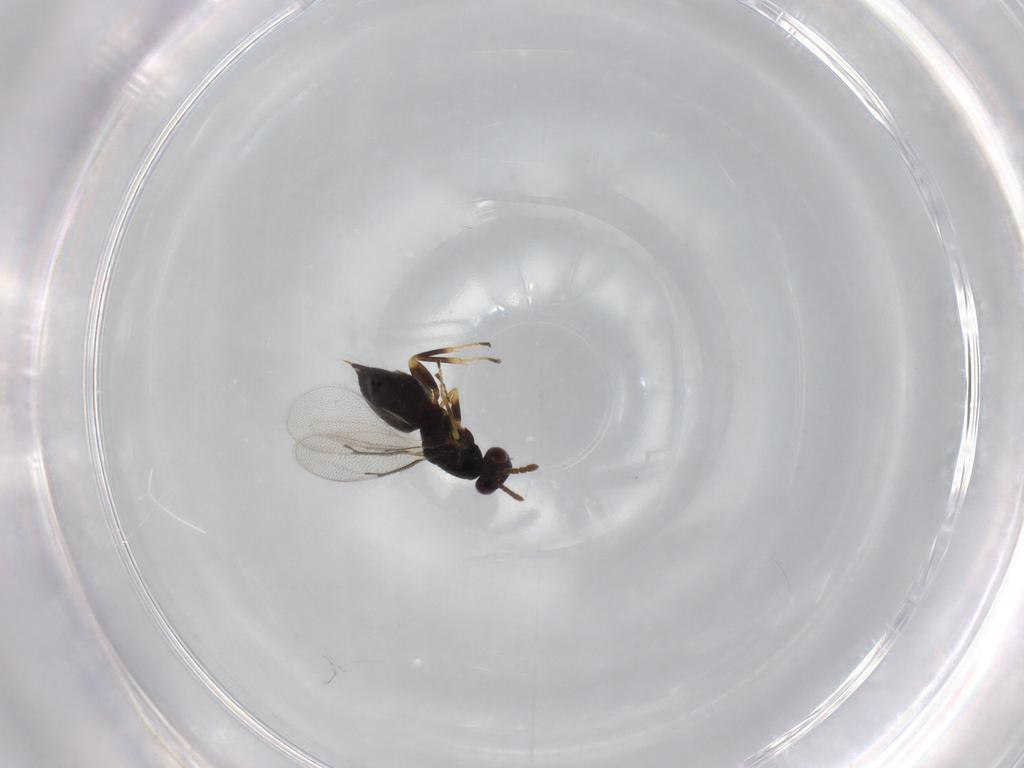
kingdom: Animalia
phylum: Arthropoda
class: Insecta
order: Hymenoptera
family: Eulophidae
